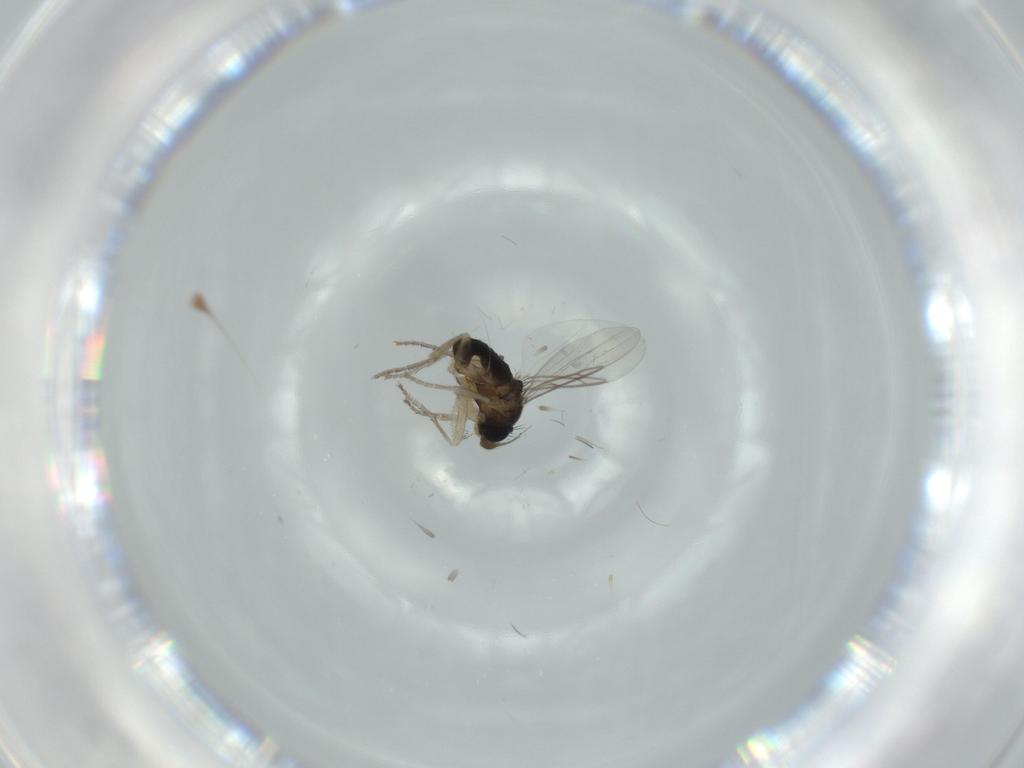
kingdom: Animalia
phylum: Arthropoda
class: Insecta
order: Diptera
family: Phoridae
